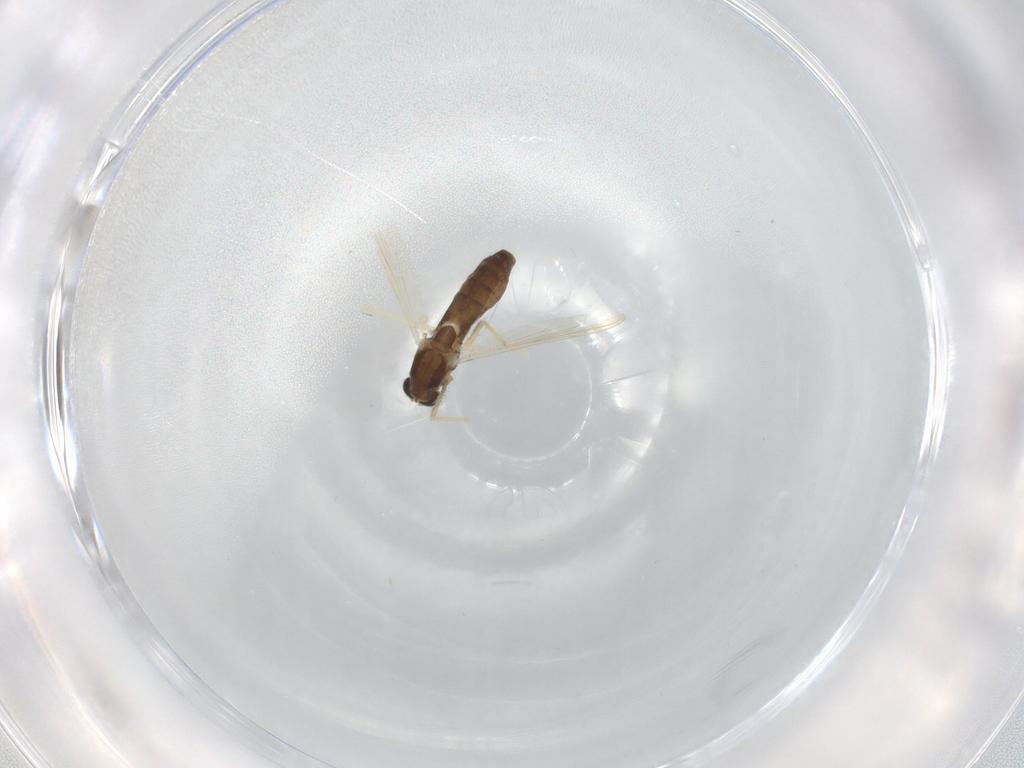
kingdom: Animalia
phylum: Arthropoda
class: Insecta
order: Diptera
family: Chironomidae
